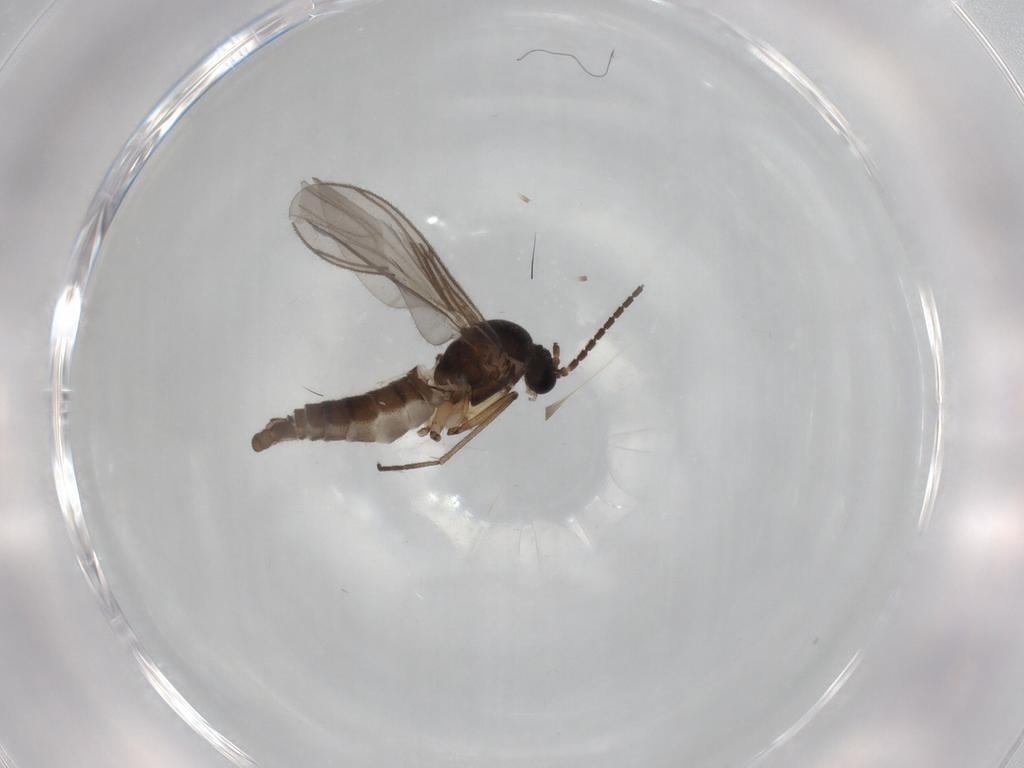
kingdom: Animalia
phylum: Arthropoda
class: Insecta
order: Diptera
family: Sciaridae
